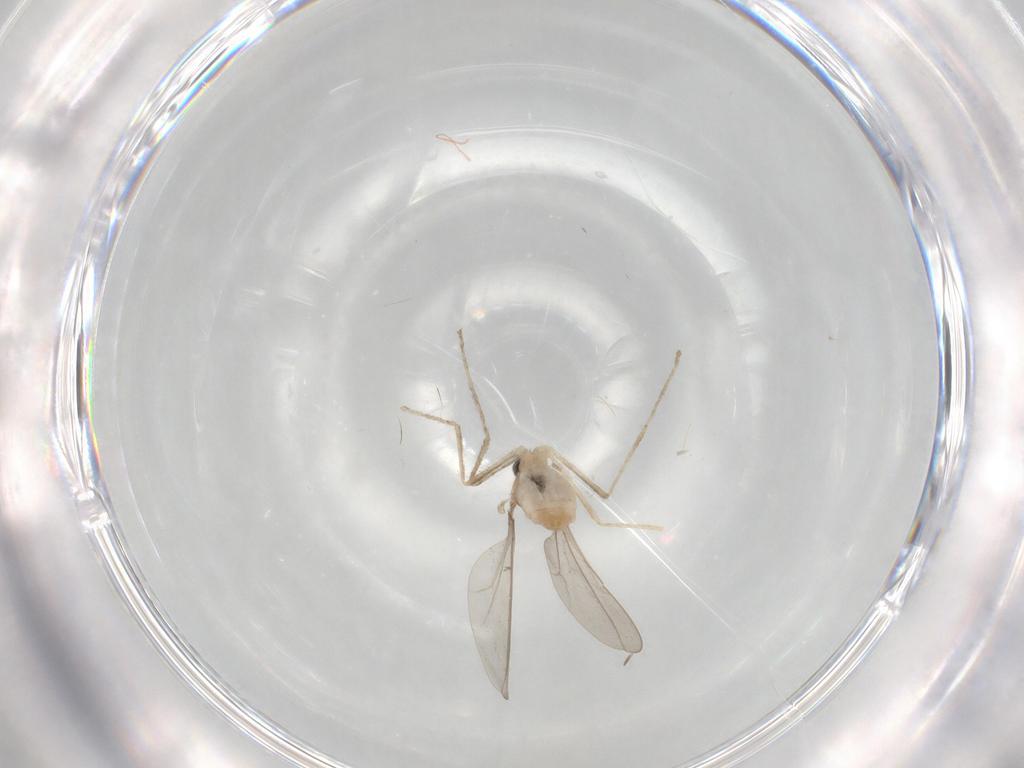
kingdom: Animalia
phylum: Arthropoda
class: Insecta
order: Diptera
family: Cecidomyiidae
